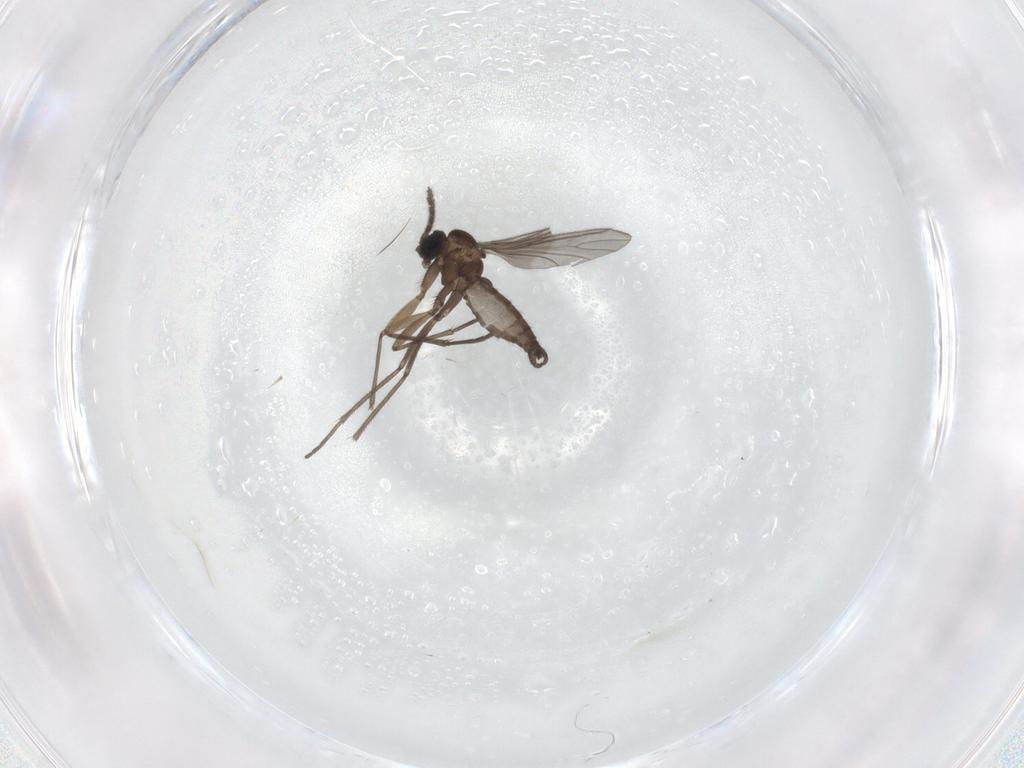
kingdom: Animalia
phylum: Arthropoda
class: Insecta
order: Diptera
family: Sciaridae
